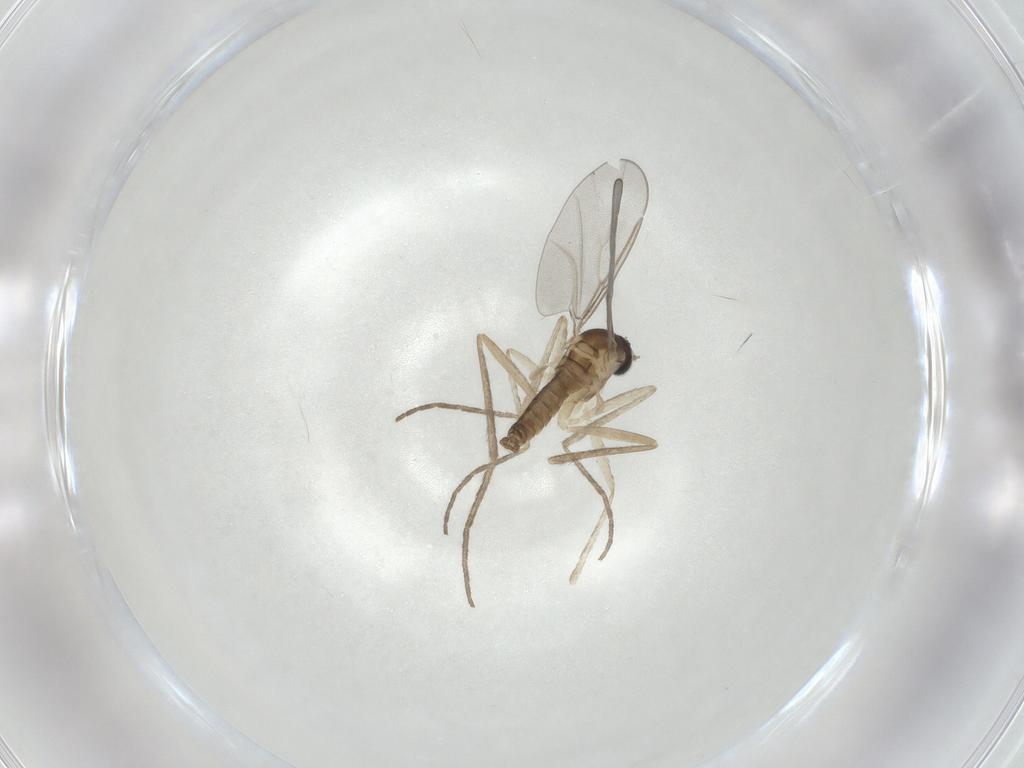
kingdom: Animalia
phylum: Arthropoda
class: Insecta
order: Diptera
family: Cecidomyiidae
